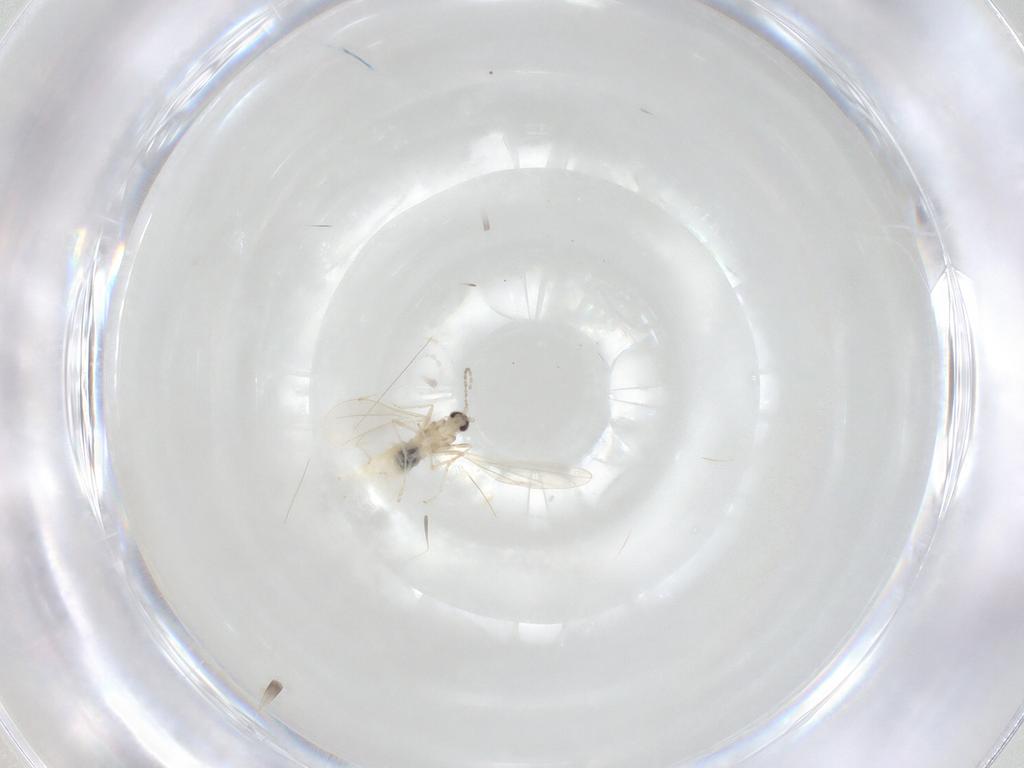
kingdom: Animalia
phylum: Arthropoda
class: Insecta
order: Diptera
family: Cecidomyiidae
